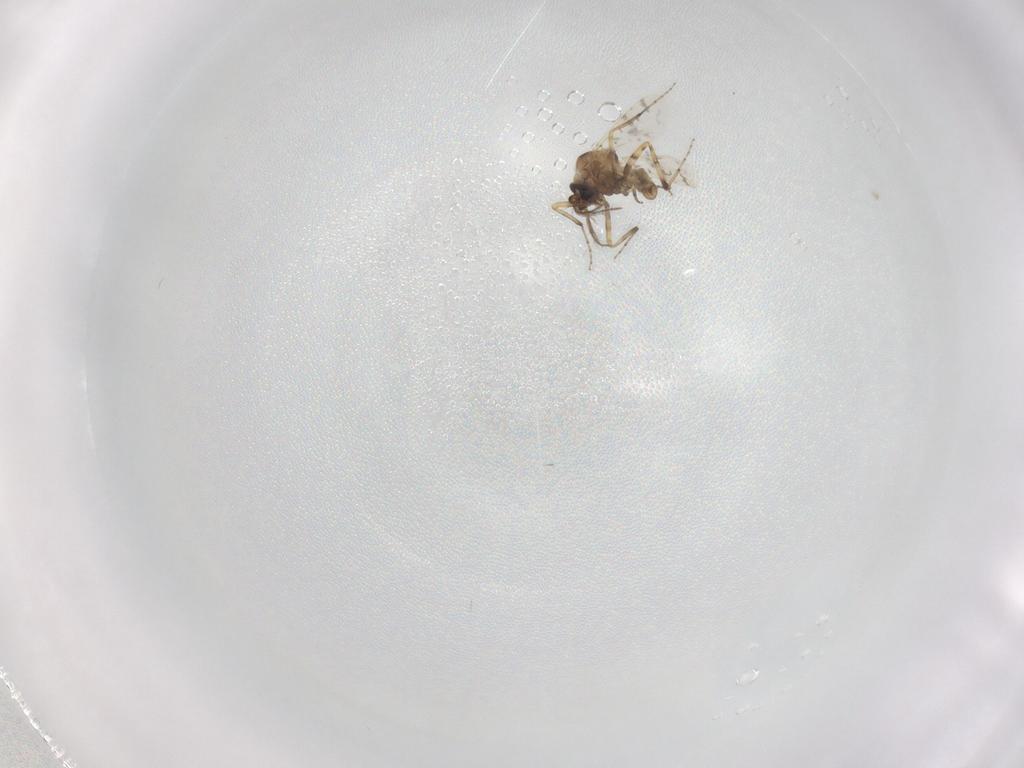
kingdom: Animalia
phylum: Arthropoda
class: Insecta
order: Diptera
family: Ceratopogonidae
